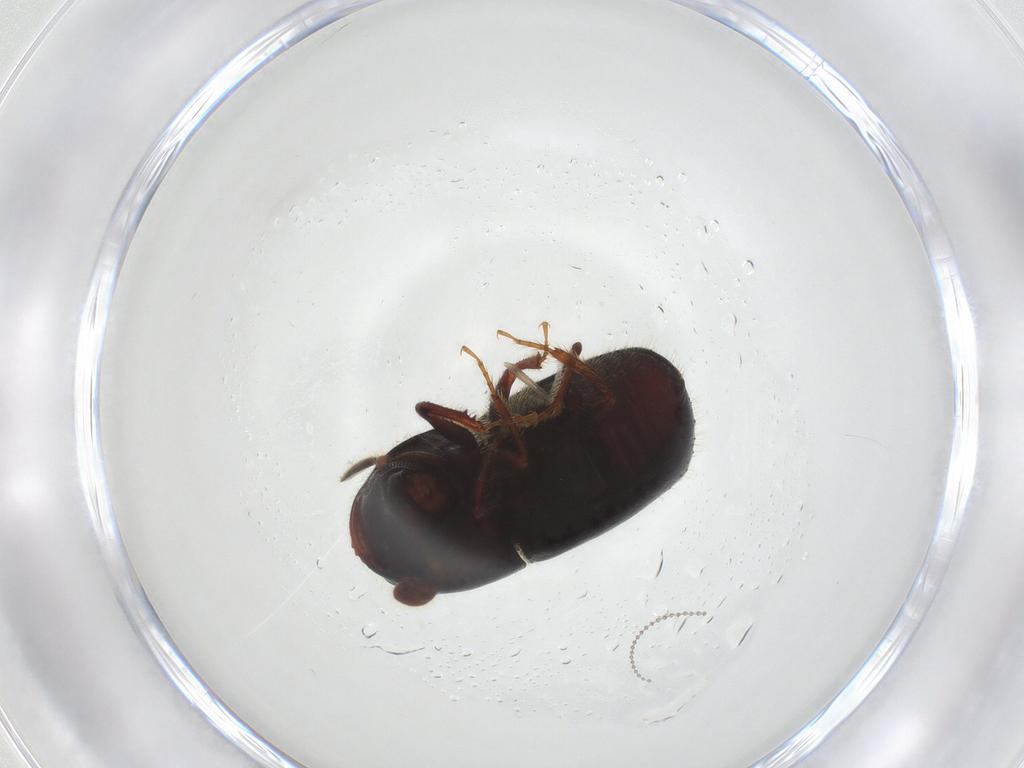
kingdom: Animalia
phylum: Arthropoda
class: Insecta
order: Coleoptera
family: Curculionidae
